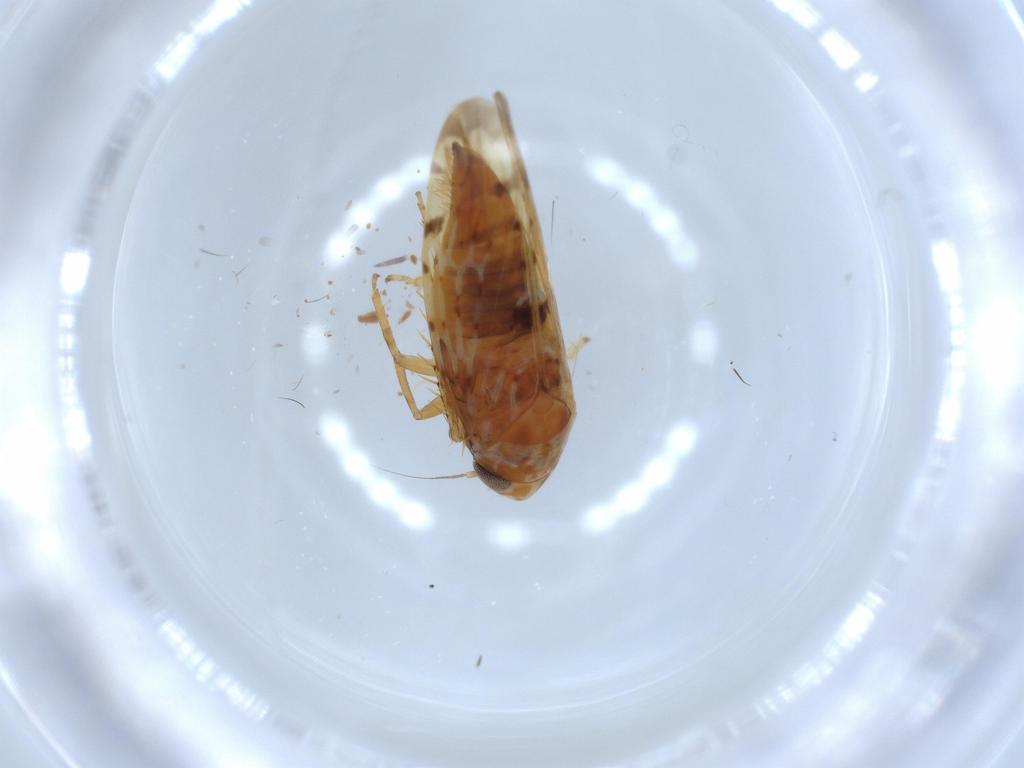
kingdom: Animalia
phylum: Arthropoda
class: Insecta
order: Hemiptera
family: Cicadellidae
